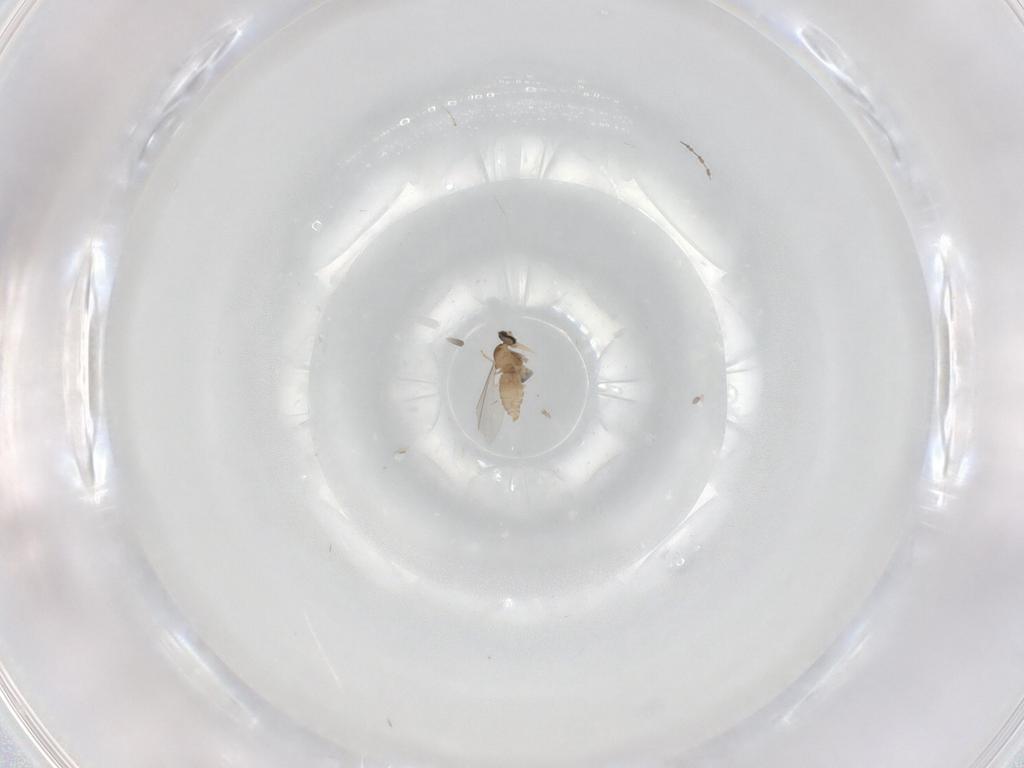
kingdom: Animalia
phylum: Arthropoda
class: Insecta
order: Diptera
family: Cecidomyiidae
